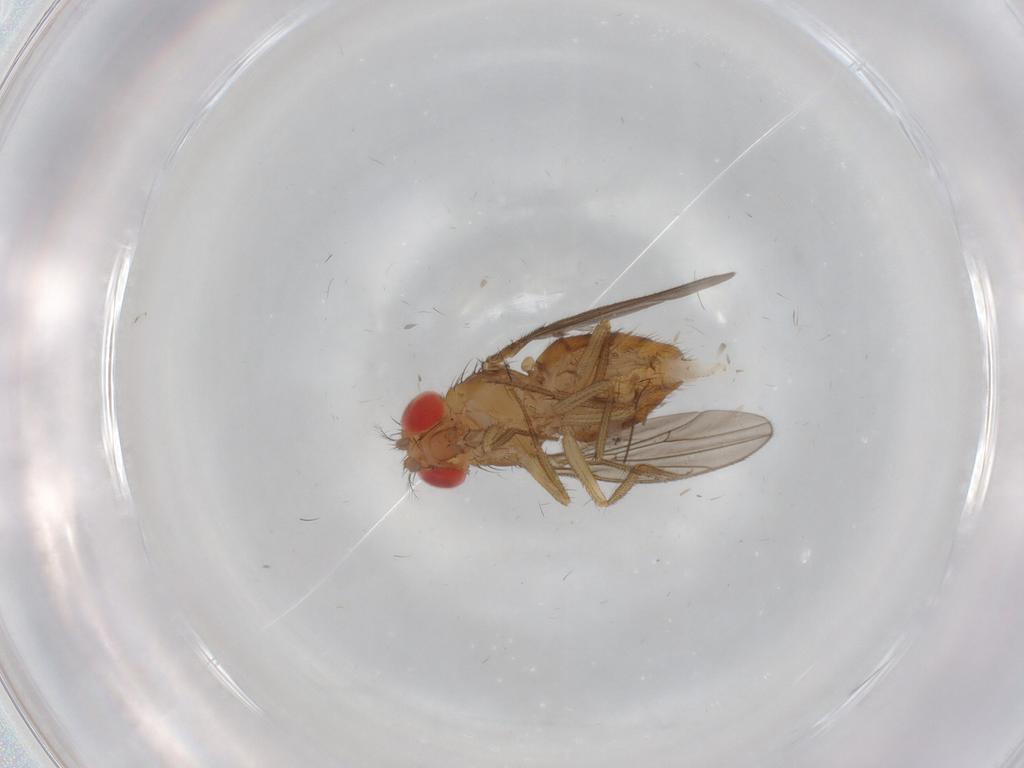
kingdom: Animalia
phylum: Arthropoda
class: Insecta
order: Diptera
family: Drosophilidae
